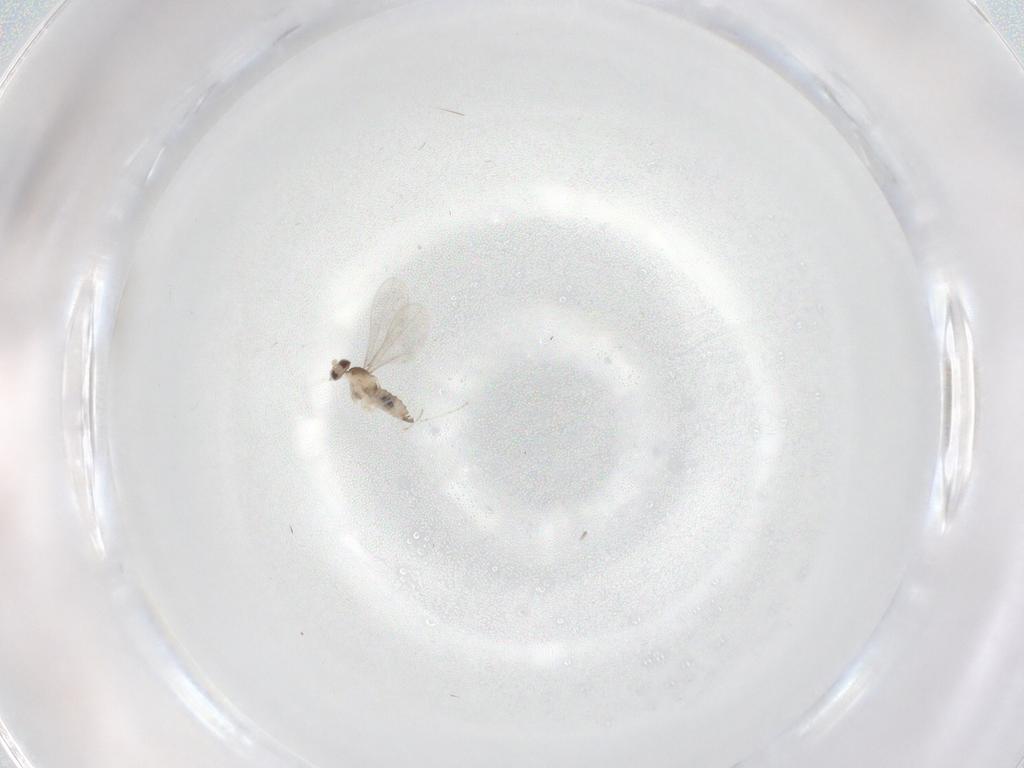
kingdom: Animalia
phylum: Arthropoda
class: Insecta
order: Diptera
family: Cecidomyiidae
